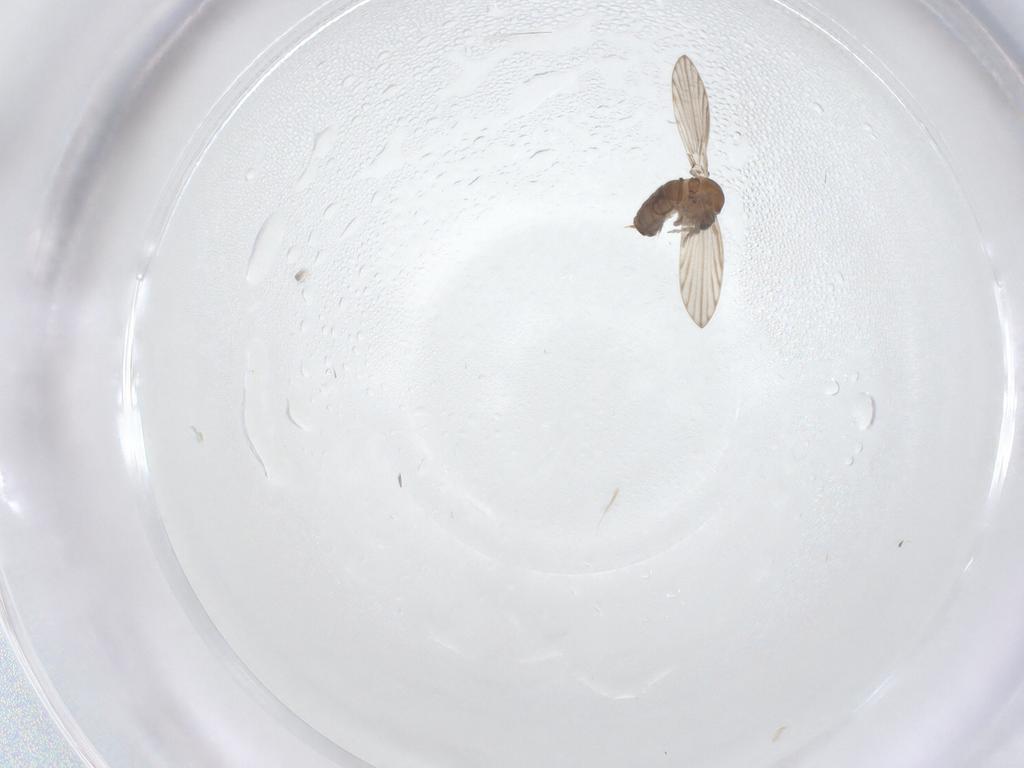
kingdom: Animalia
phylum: Arthropoda
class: Insecta
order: Diptera
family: Psychodidae
